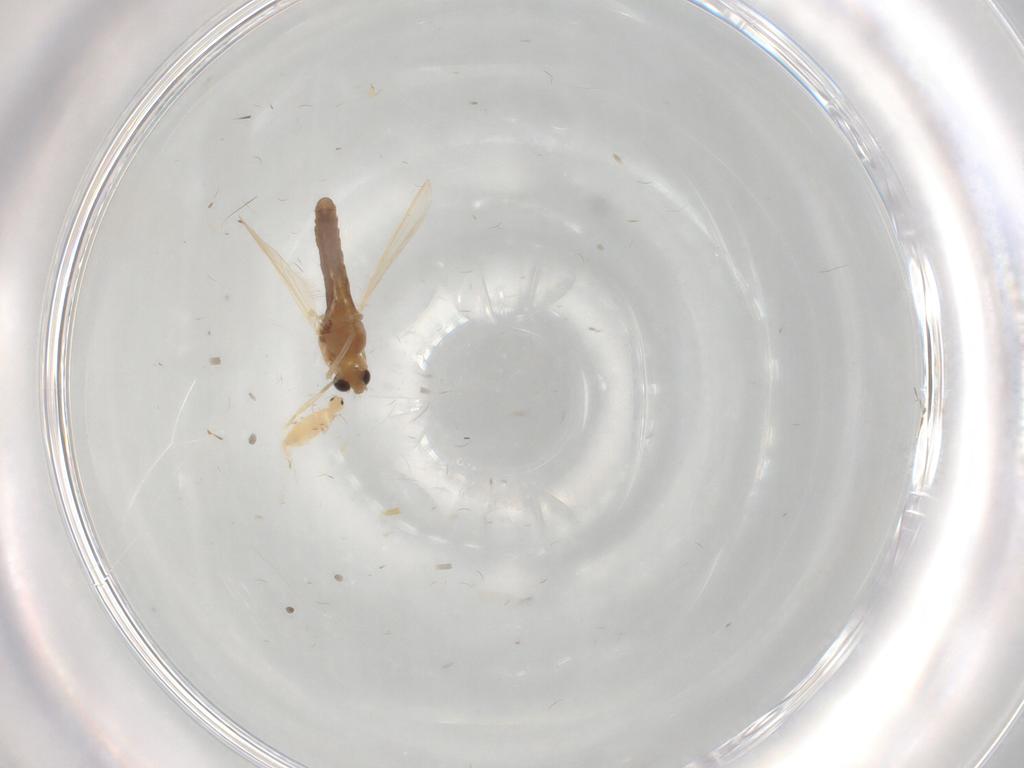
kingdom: Animalia
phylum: Arthropoda
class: Insecta
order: Diptera
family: Chironomidae
